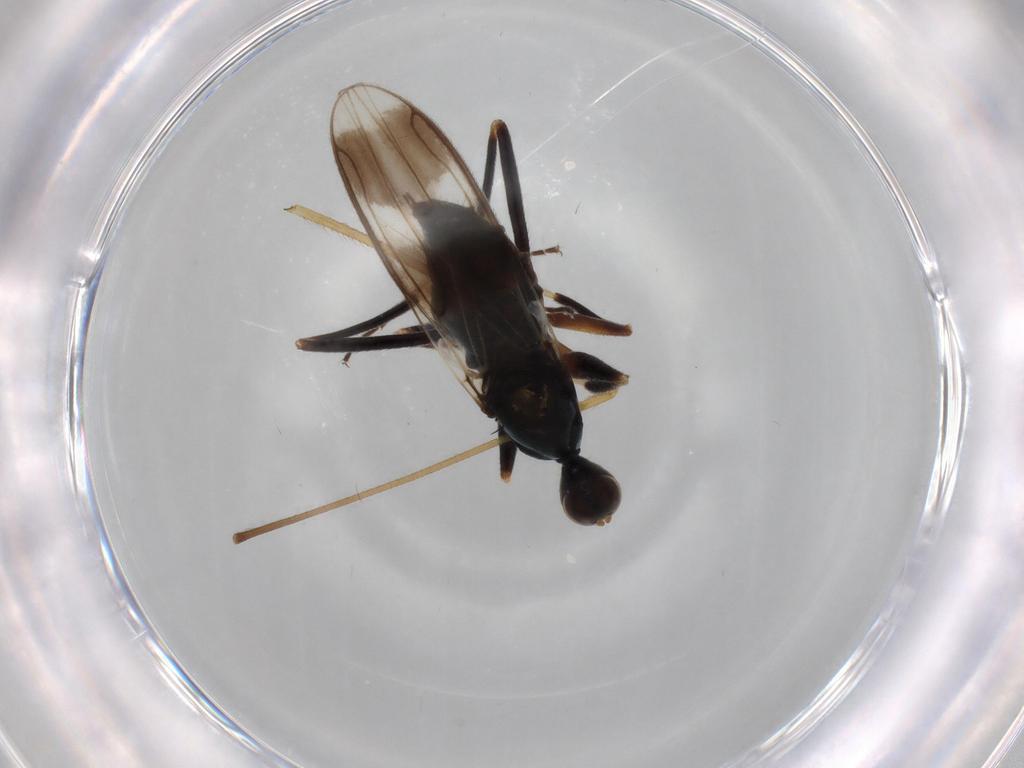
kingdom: Animalia
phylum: Arthropoda
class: Insecta
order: Diptera
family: Hybotidae
